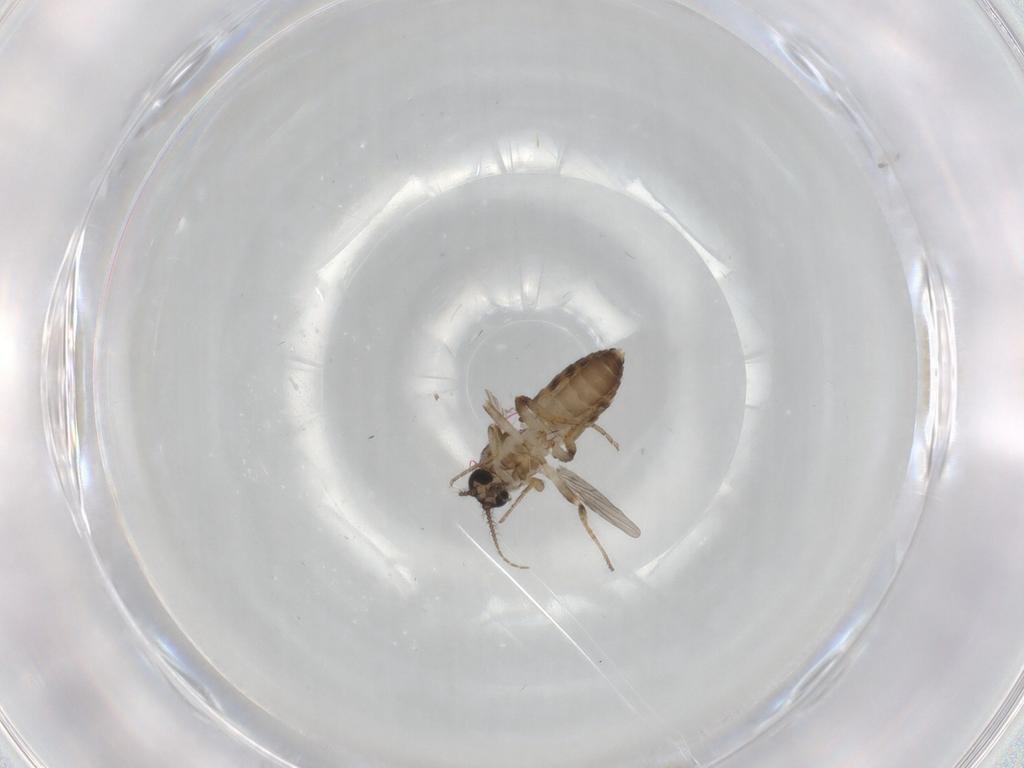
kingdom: Animalia
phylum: Arthropoda
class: Insecta
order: Diptera
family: Ceratopogonidae
